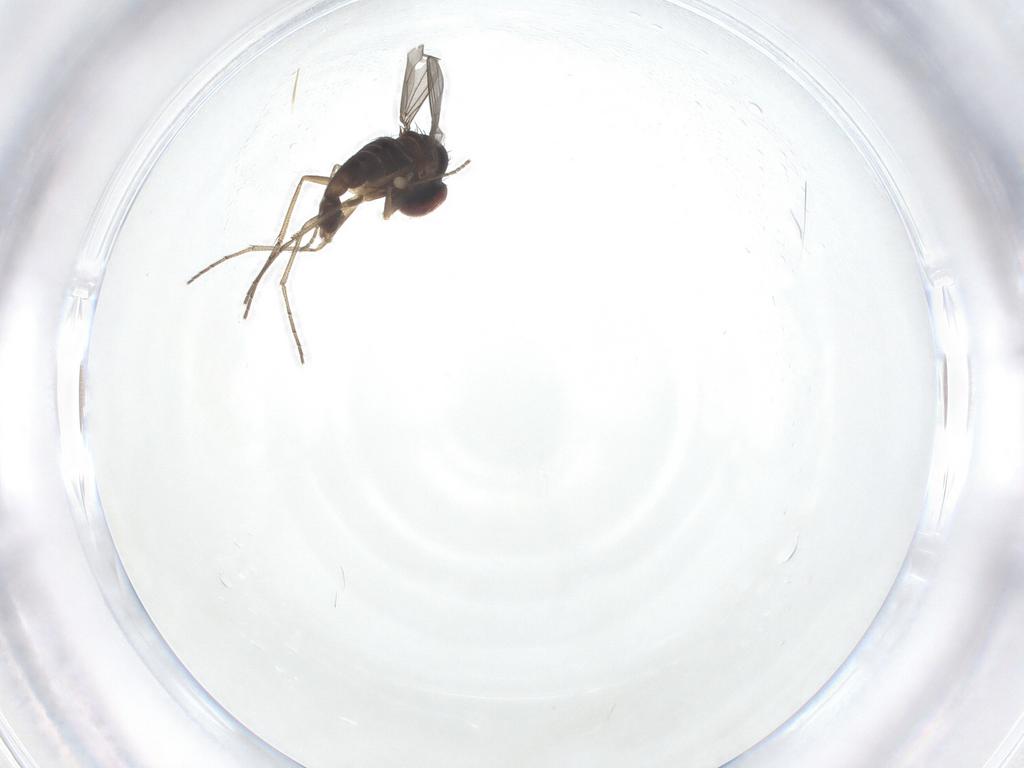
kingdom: Animalia
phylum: Arthropoda
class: Insecta
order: Diptera
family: Dolichopodidae
